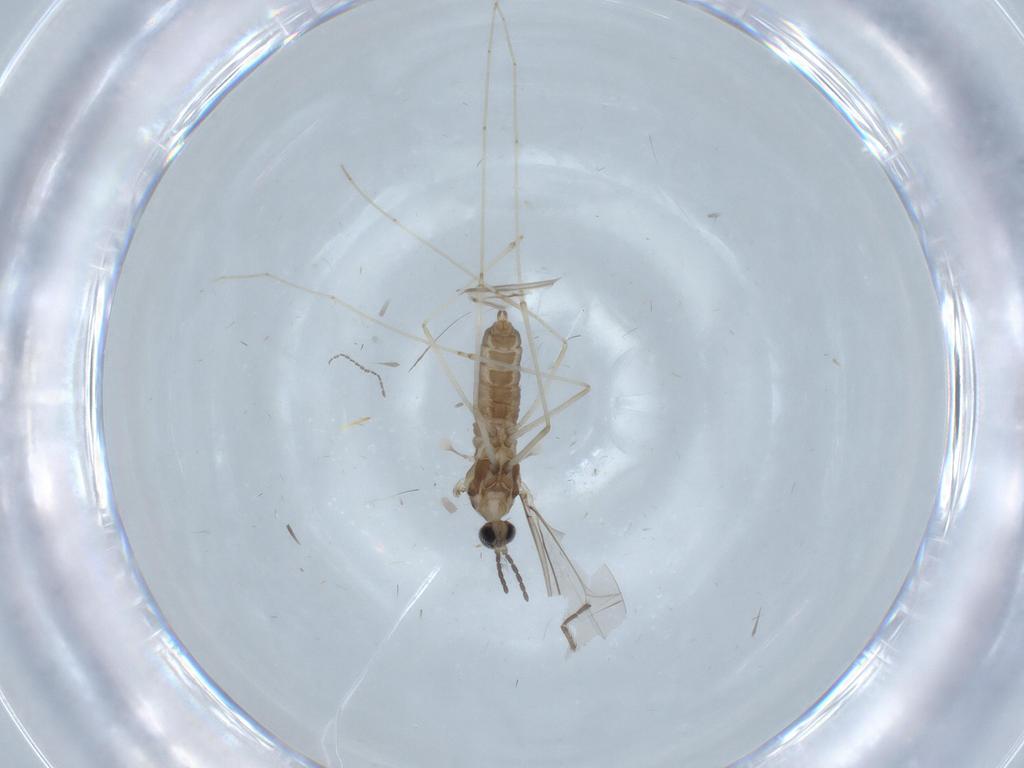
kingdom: Animalia
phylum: Arthropoda
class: Insecta
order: Diptera
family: Cecidomyiidae
